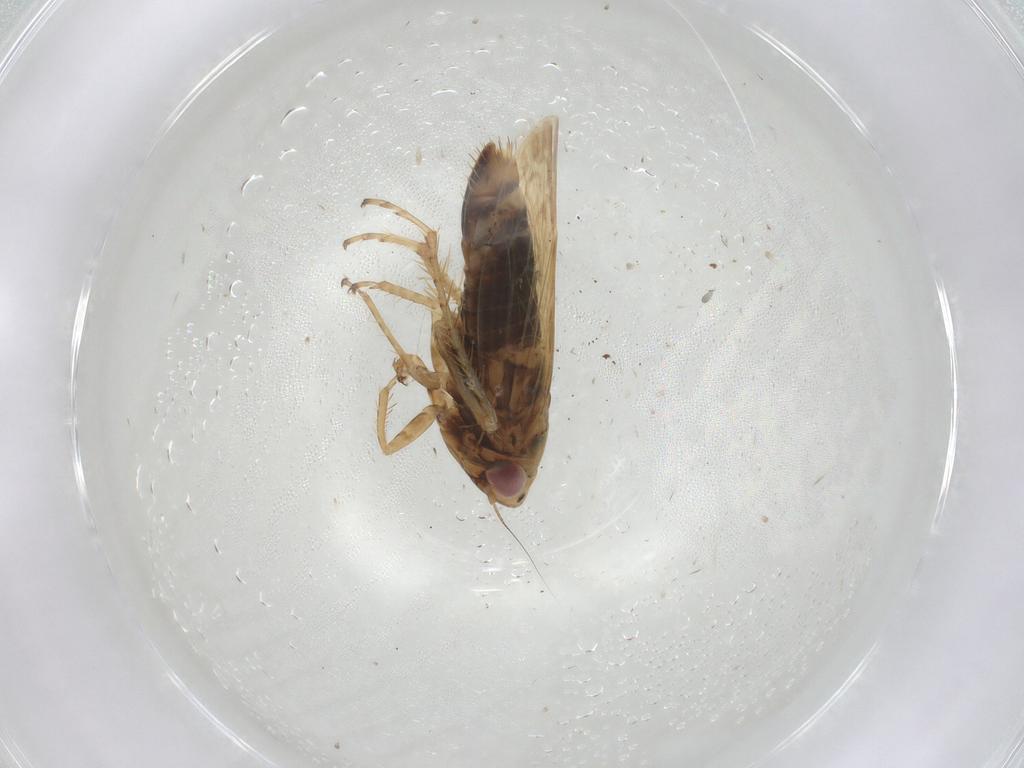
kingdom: Animalia
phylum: Arthropoda
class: Insecta
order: Hemiptera
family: Cicadellidae
